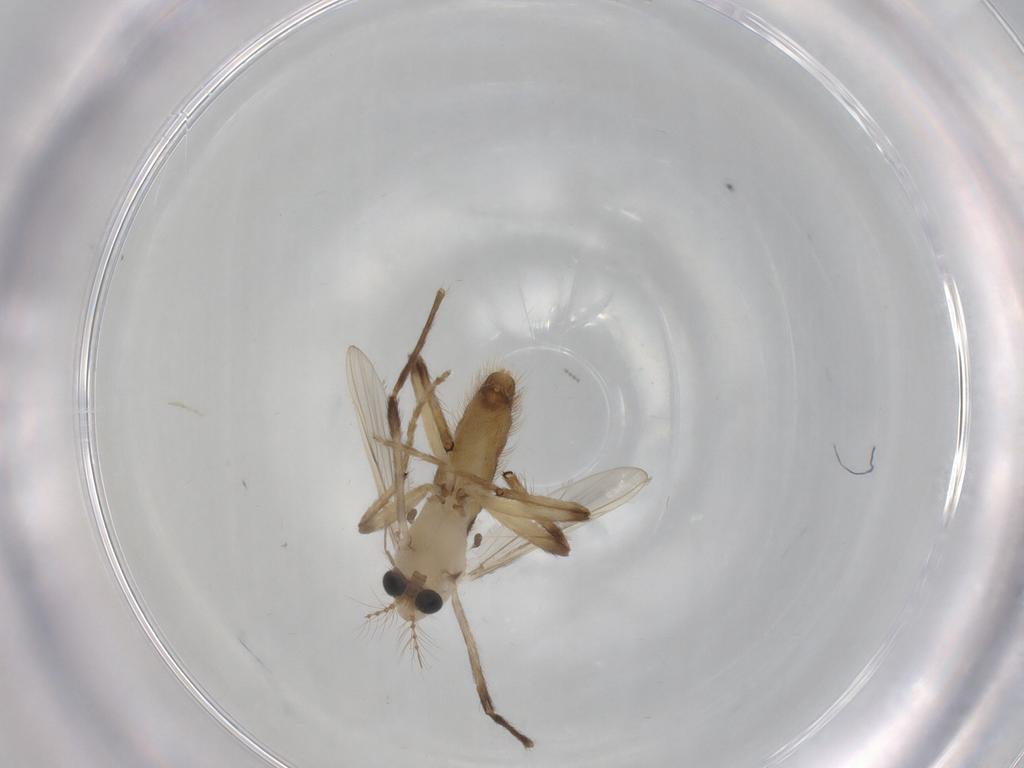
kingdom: Animalia
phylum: Arthropoda
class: Insecta
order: Diptera
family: Chironomidae
